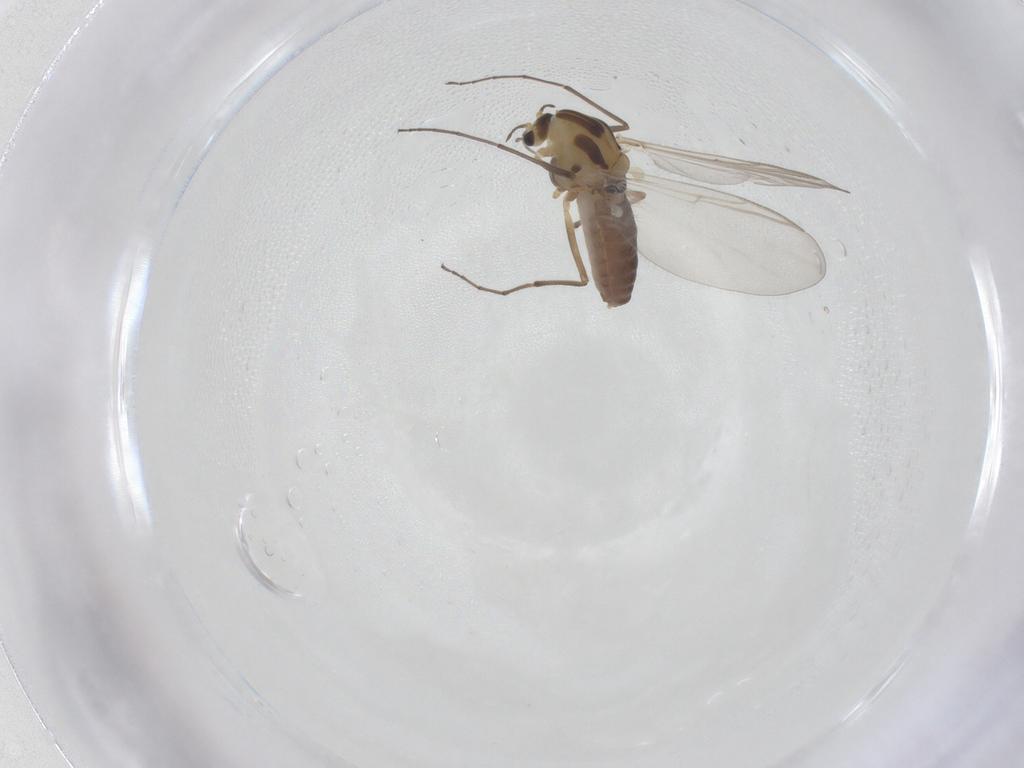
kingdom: Animalia
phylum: Arthropoda
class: Insecta
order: Diptera
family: Chironomidae
